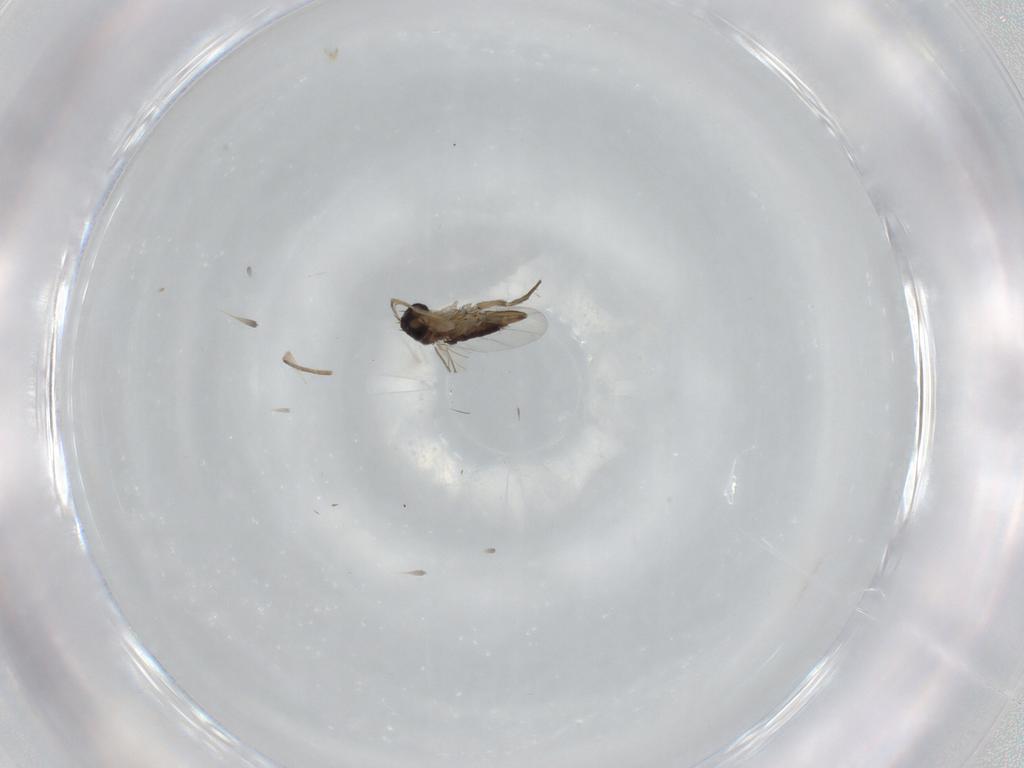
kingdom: Animalia
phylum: Arthropoda
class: Insecta
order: Diptera
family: Phoridae
